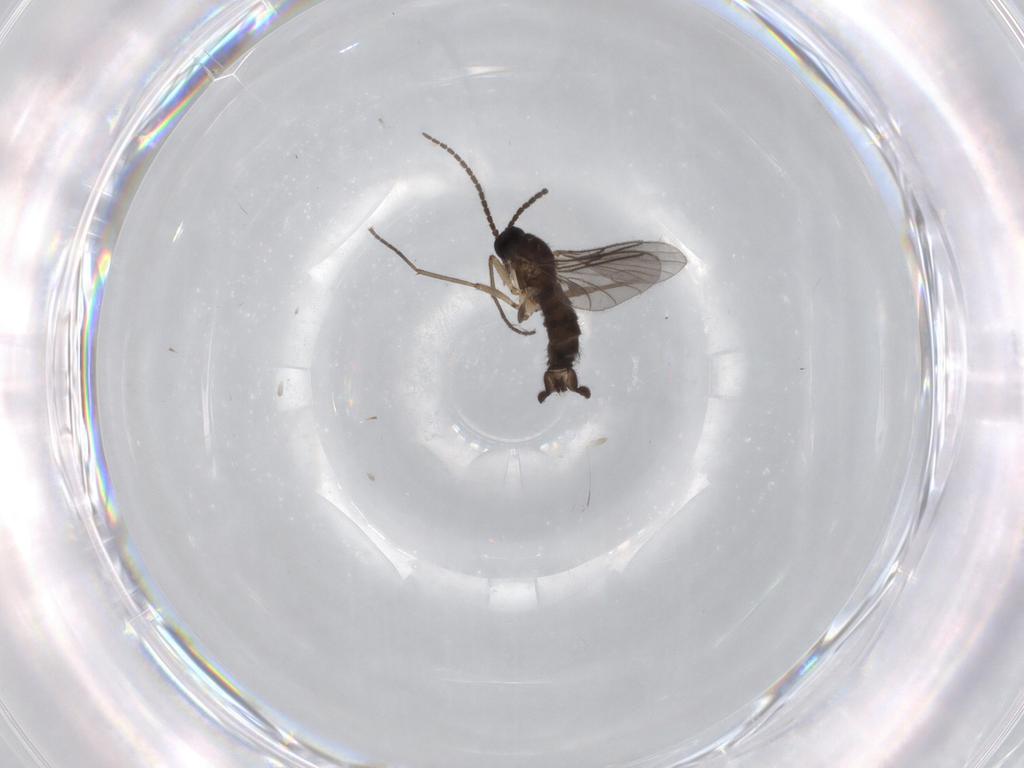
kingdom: Animalia
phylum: Arthropoda
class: Insecta
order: Diptera
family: Sciaridae
